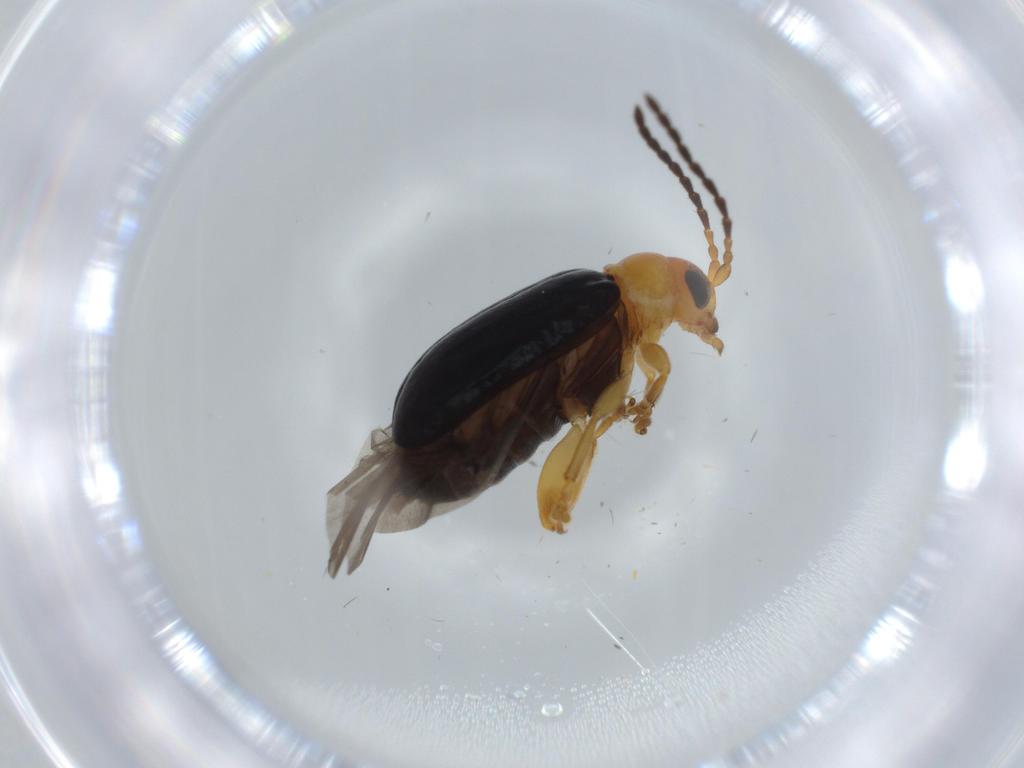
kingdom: Animalia
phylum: Arthropoda
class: Insecta
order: Coleoptera
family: Chrysomelidae
